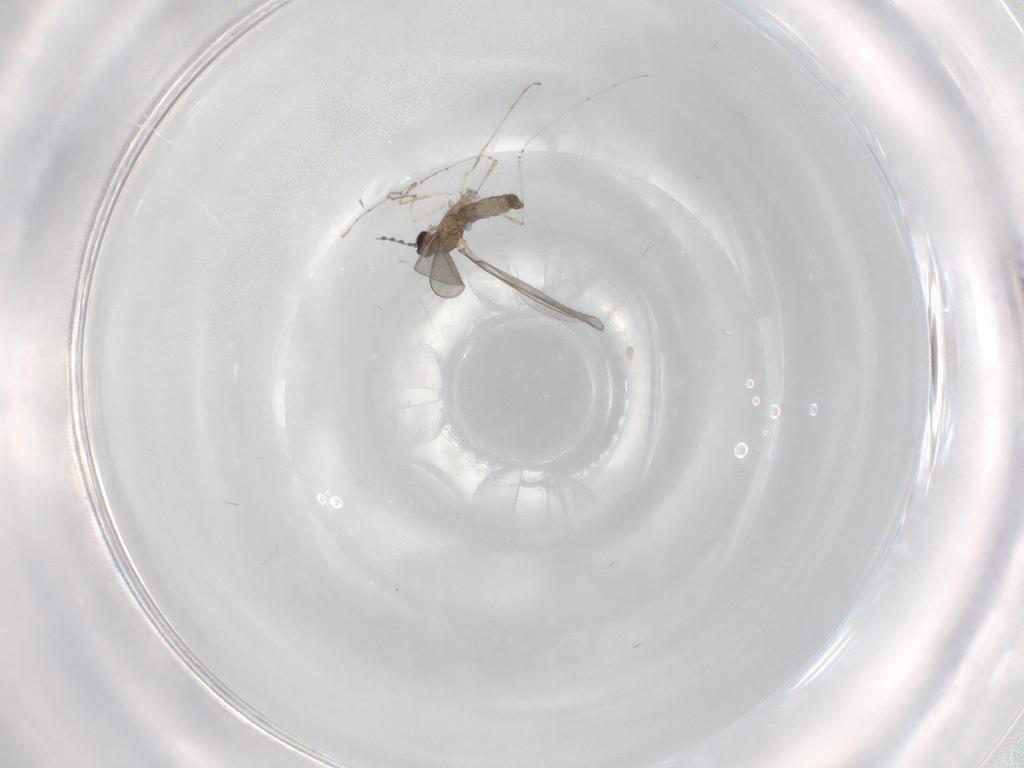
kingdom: Animalia
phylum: Arthropoda
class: Insecta
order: Diptera
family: Cecidomyiidae
